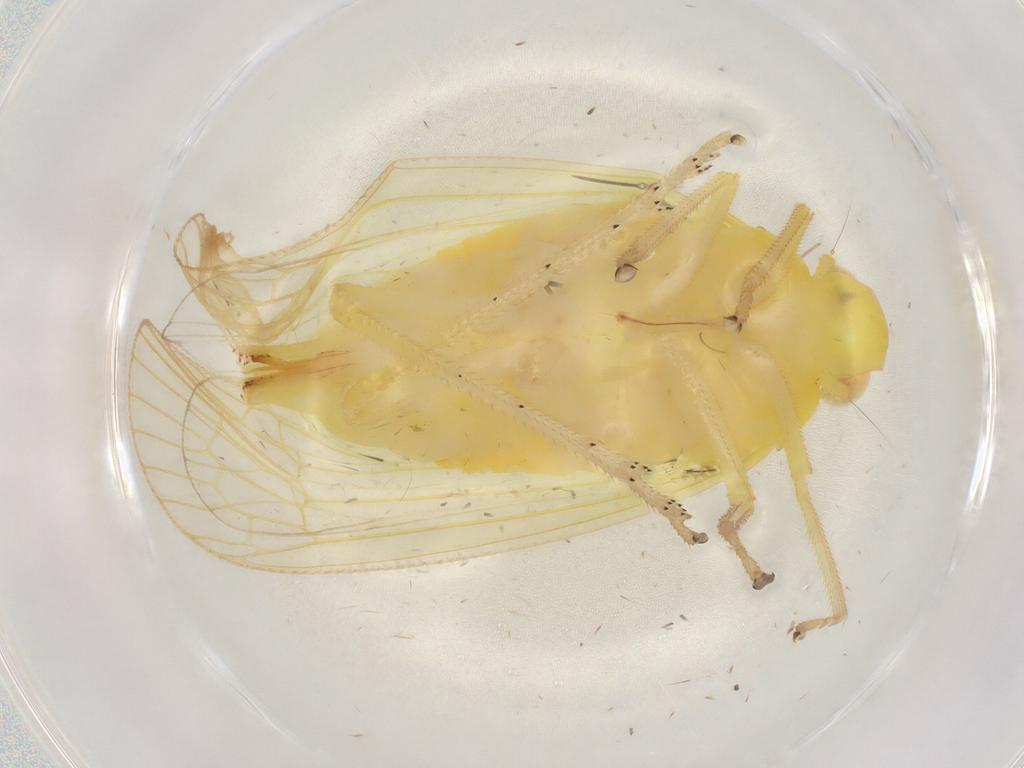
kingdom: Animalia
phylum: Arthropoda
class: Insecta
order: Hemiptera
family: Tropiduchidae
